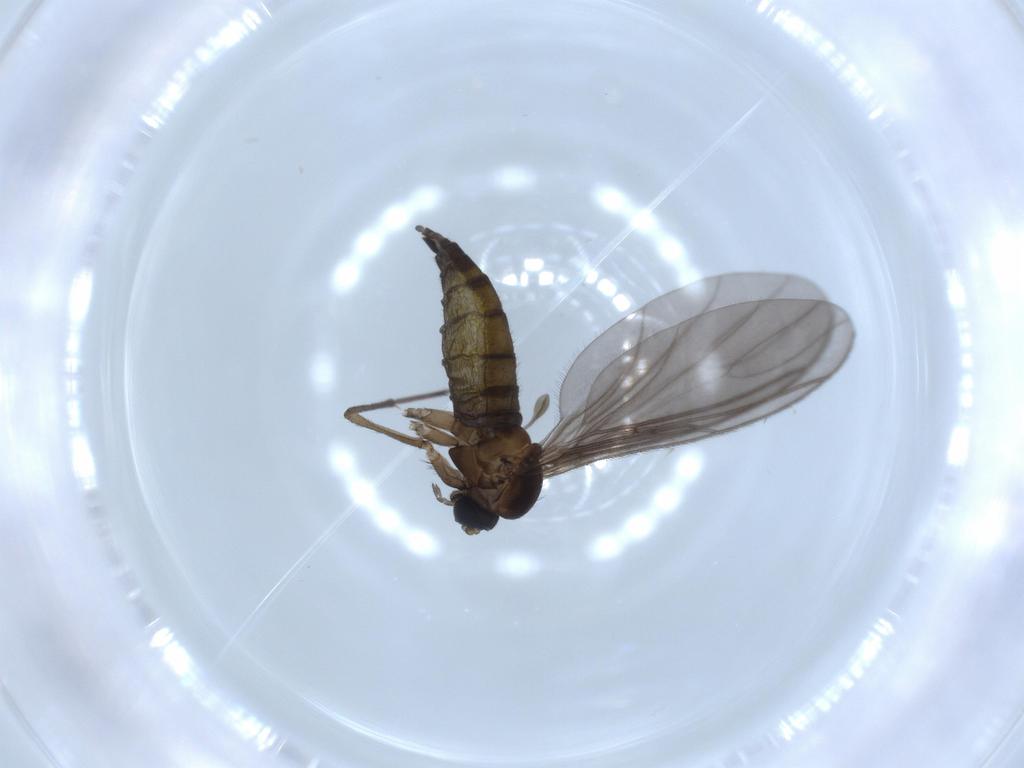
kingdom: Animalia
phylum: Arthropoda
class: Insecta
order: Diptera
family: Sciaridae
